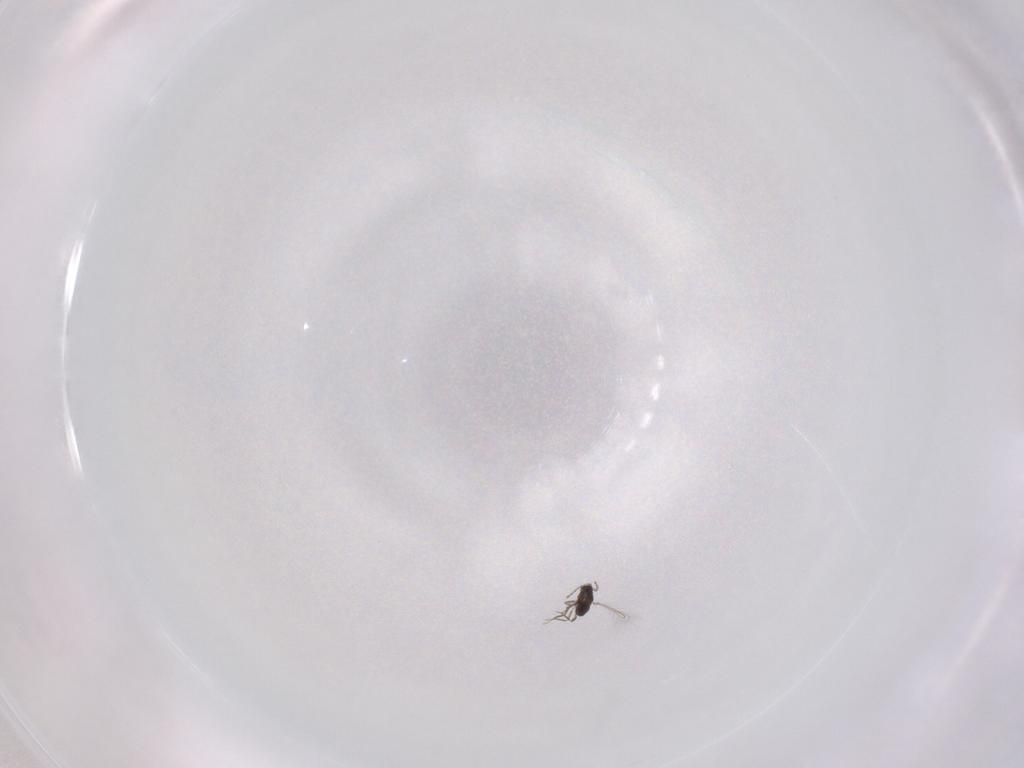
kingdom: Animalia
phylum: Arthropoda
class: Insecta
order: Hymenoptera
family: Mymaridae
